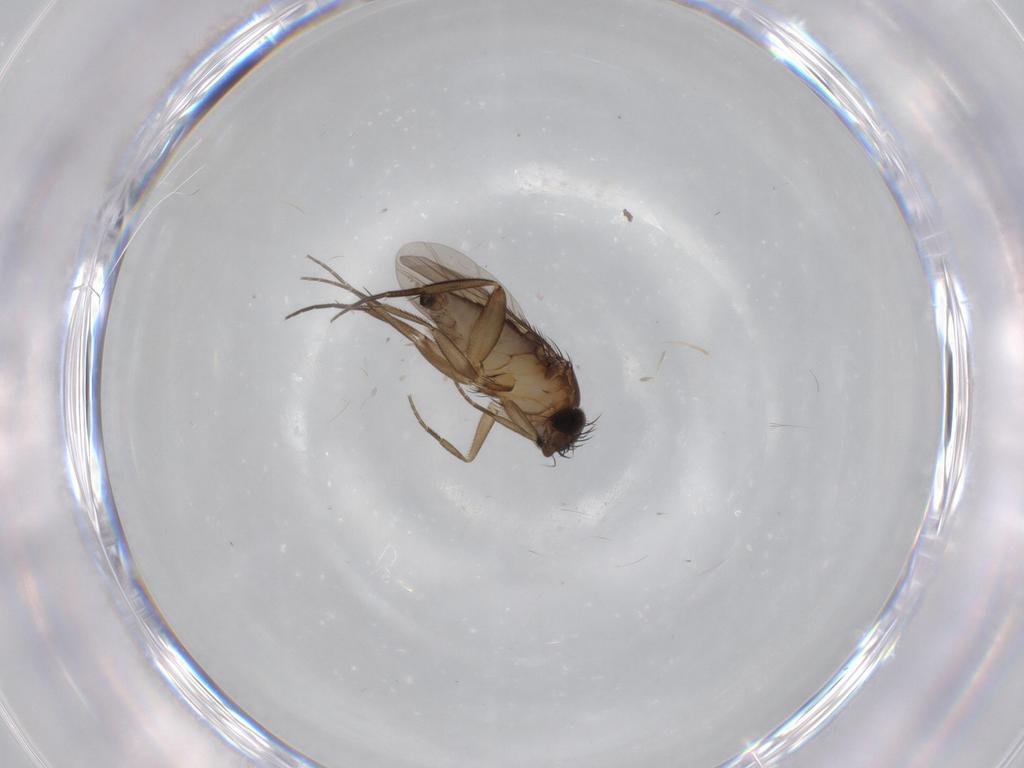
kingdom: Animalia
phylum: Arthropoda
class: Insecta
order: Diptera
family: Phoridae
